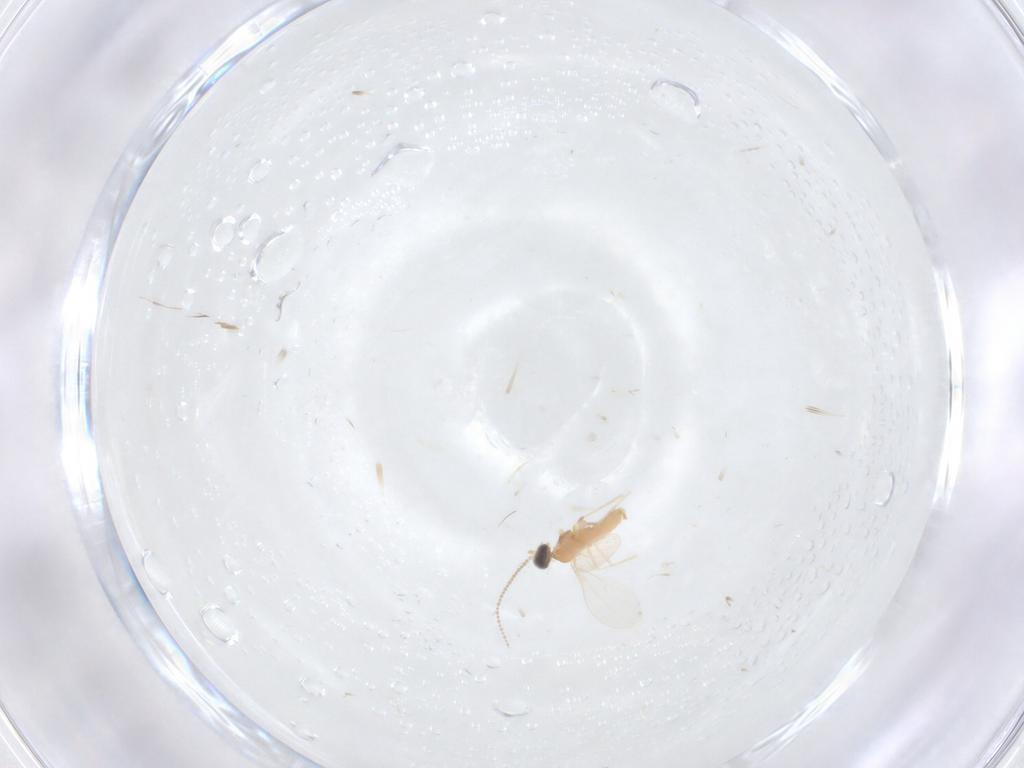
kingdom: Animalia
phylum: Arthropoda
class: Insecta
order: Diptera
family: Cecidomyiidae
